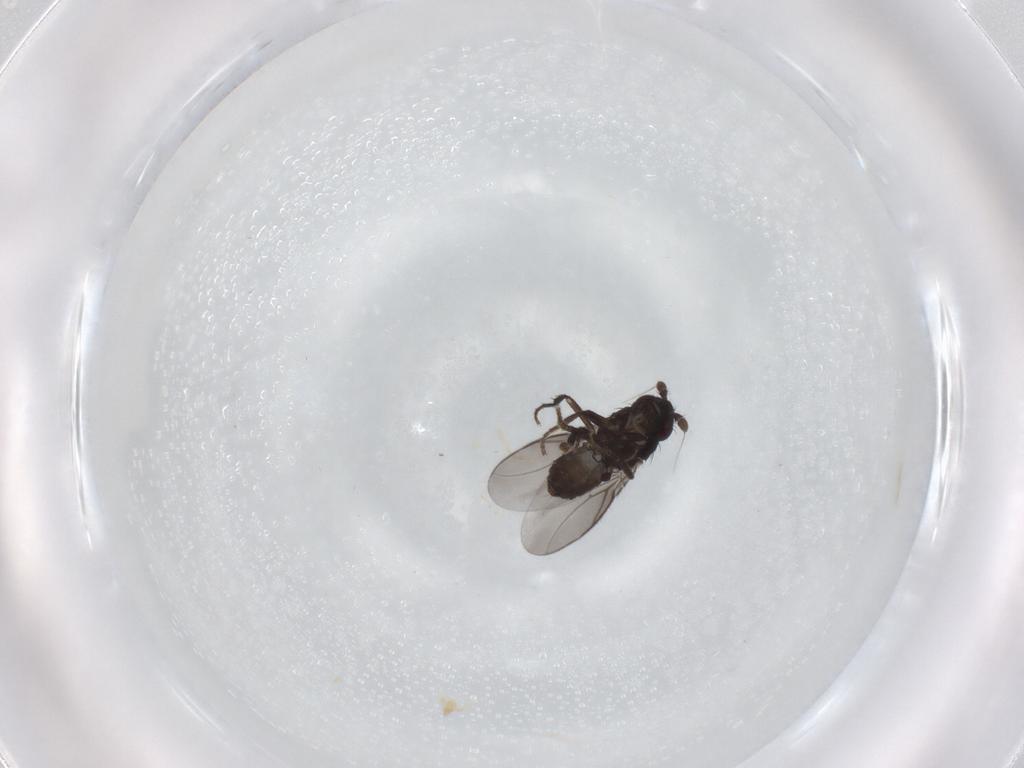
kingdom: Animalia
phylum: Arthropoda
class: Insecta
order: Diptera
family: Sphaeroceridae
